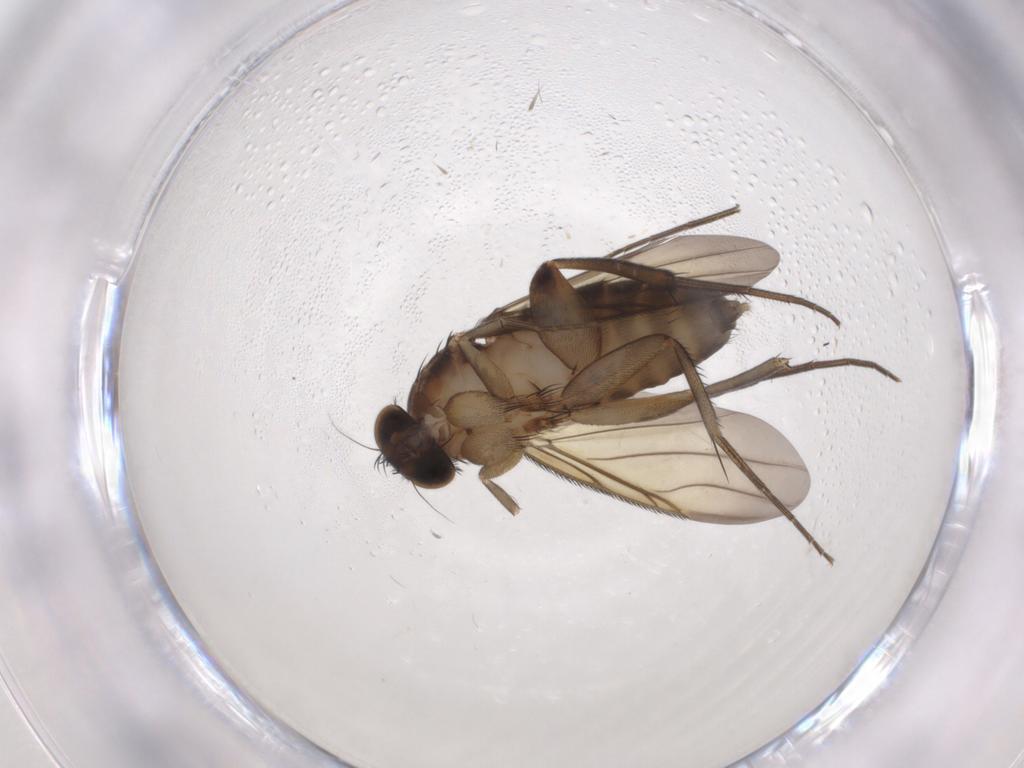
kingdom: Animalia
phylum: Arthropoda
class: Insecta
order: Diptera
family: Phoridae
